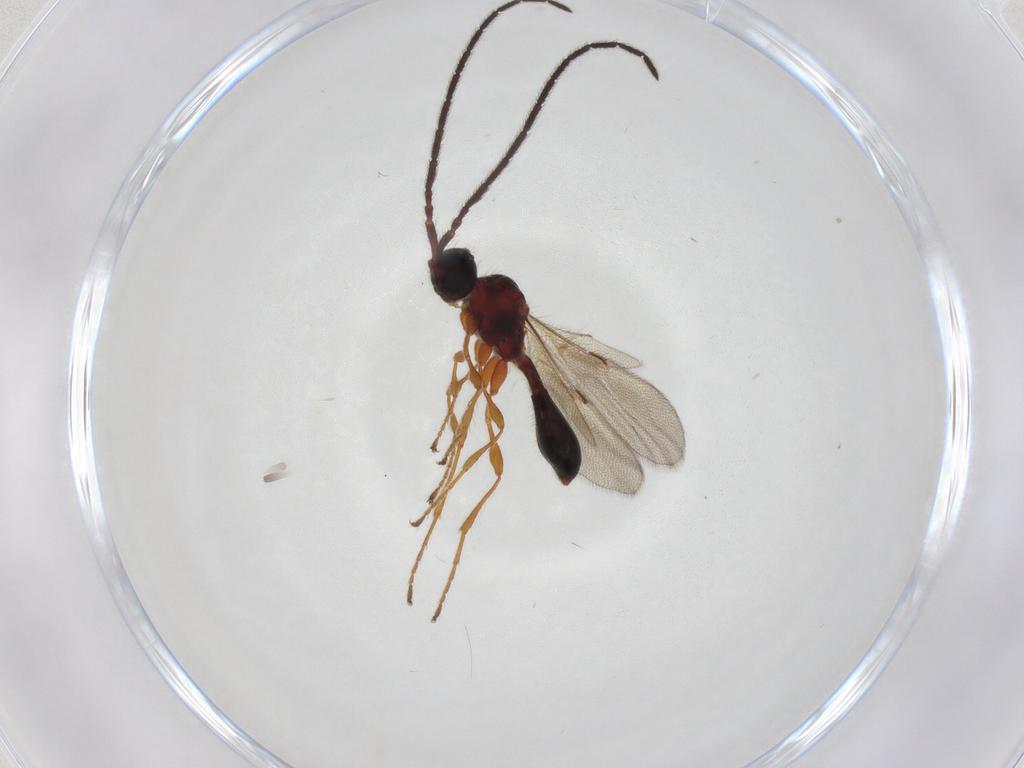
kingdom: Animalia
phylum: Arthropoda
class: Insecta
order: Hymenoptera
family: Diapriidae
